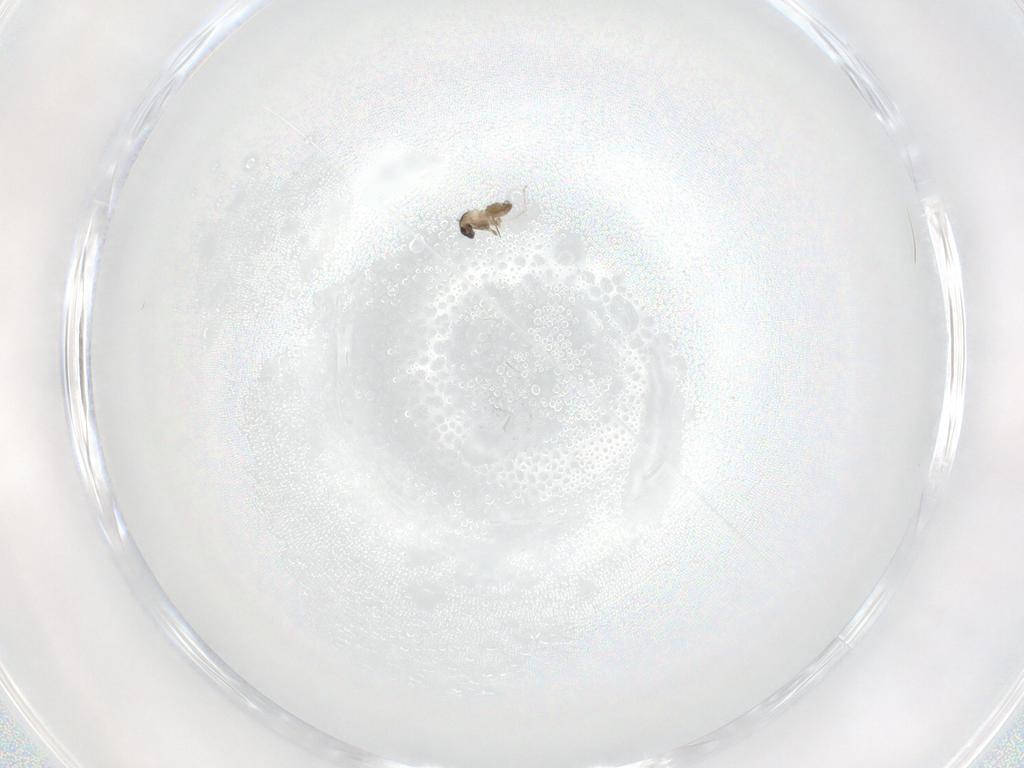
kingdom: Animalia
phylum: Arthropoda
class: Insecta
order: Diptera
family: Cecidomyiidae
